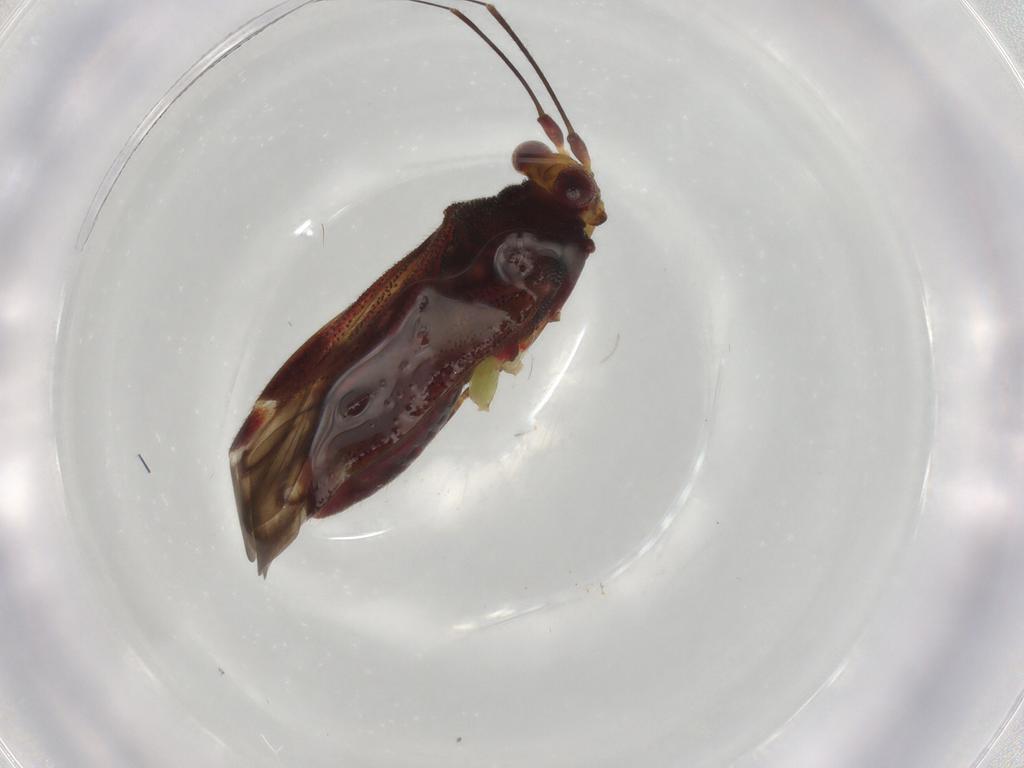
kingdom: Animalia
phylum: Arthropoda
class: Insecta
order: Hemiptera
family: Miridae
